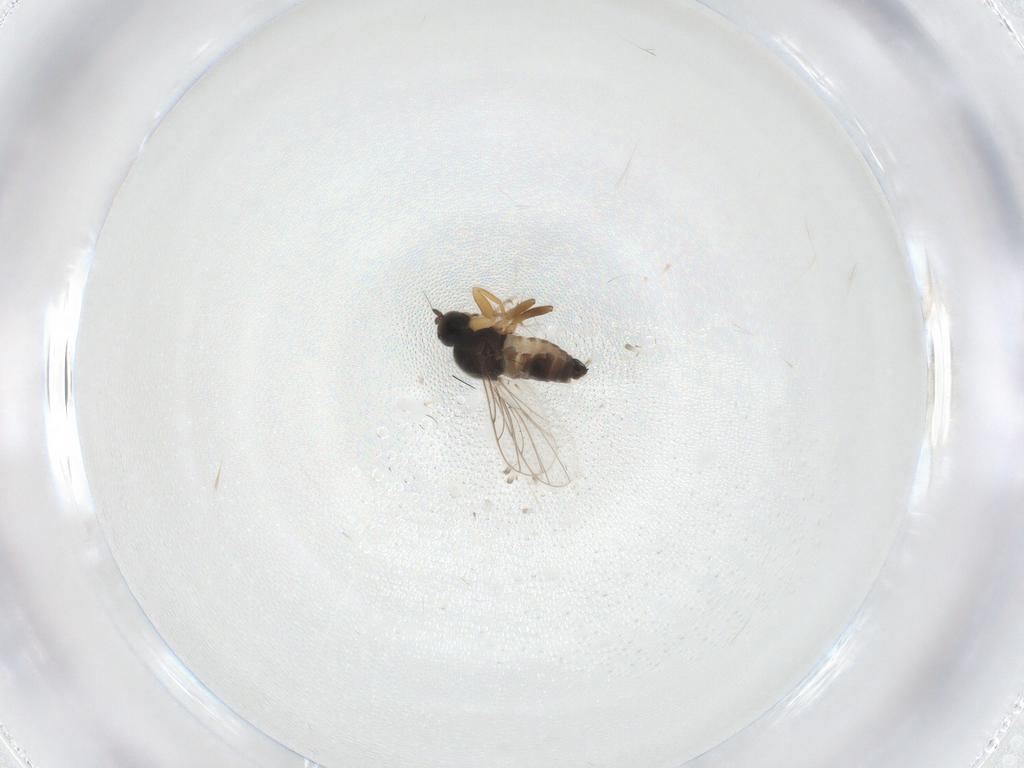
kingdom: Animalia
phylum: Arthropoda
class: Insecta
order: Diptera
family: Hybotidae
